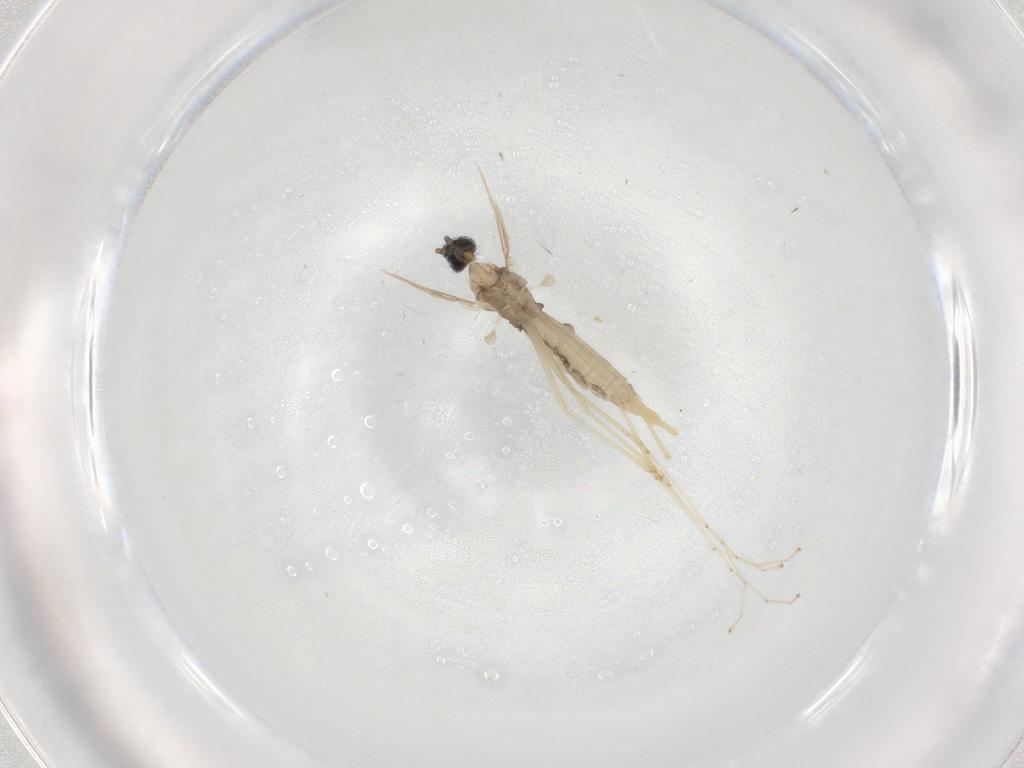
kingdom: Animalia
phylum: Arthropoda
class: Insecta
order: Diptera
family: Cecidomyiidae
